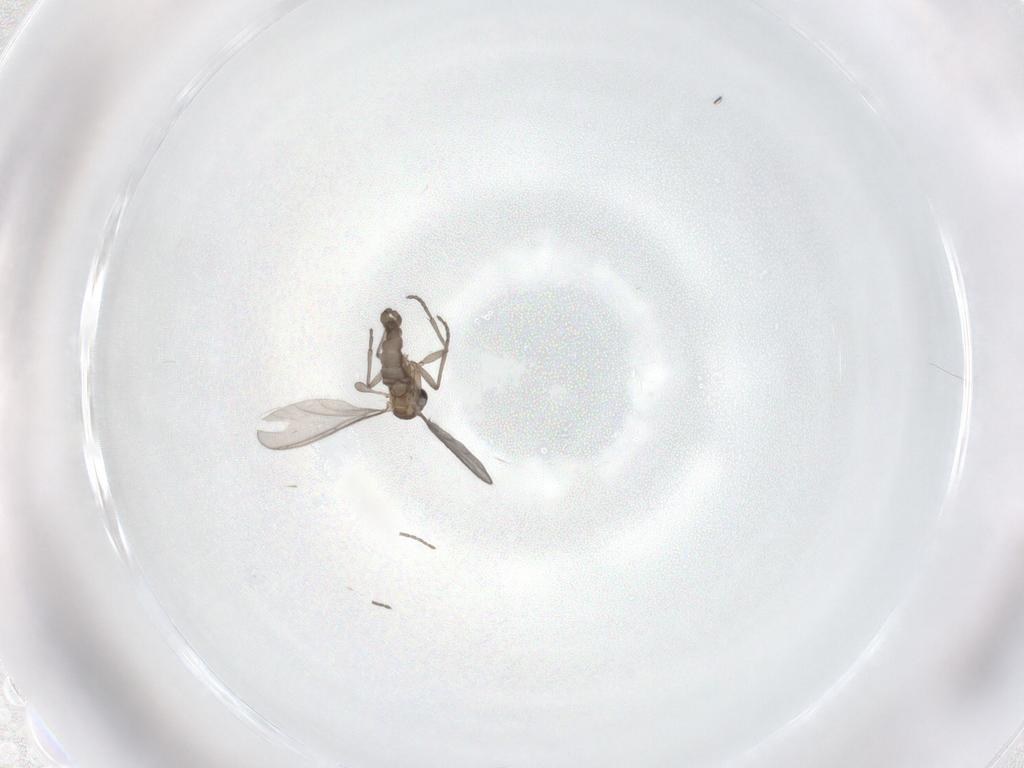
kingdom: Animalia
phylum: Arthropoda
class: Insecta
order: Diptera
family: Sciaridae
